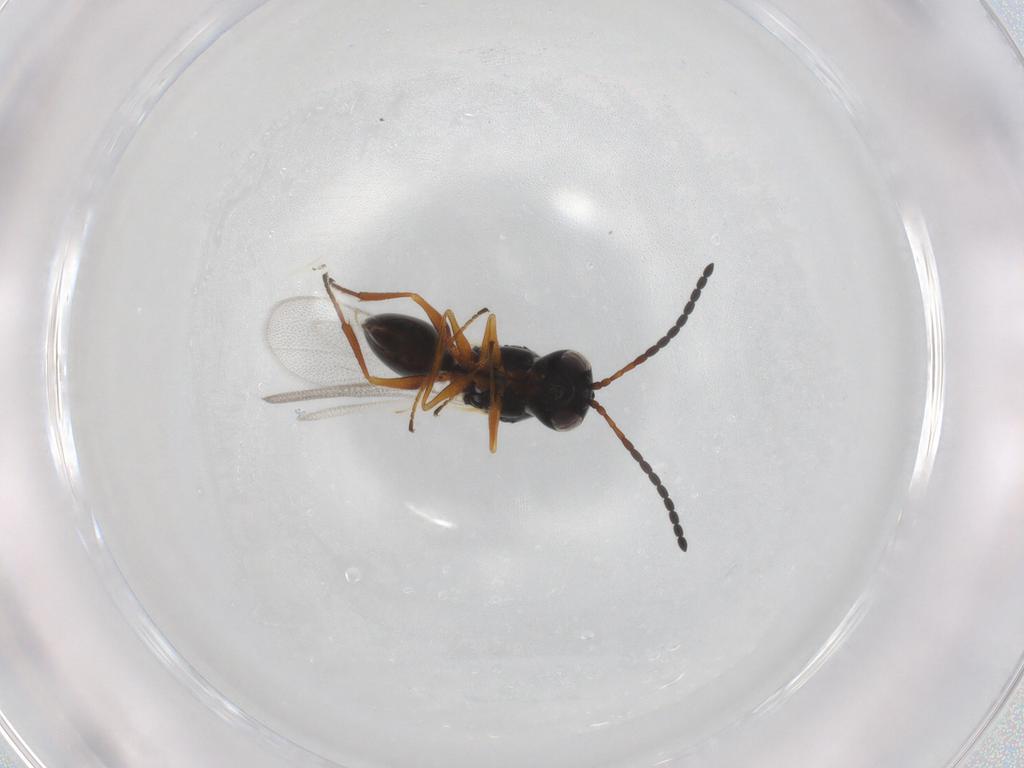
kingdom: Animalia
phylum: Arthropoda
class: Insecta
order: Hymenoptera
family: Figitidae
